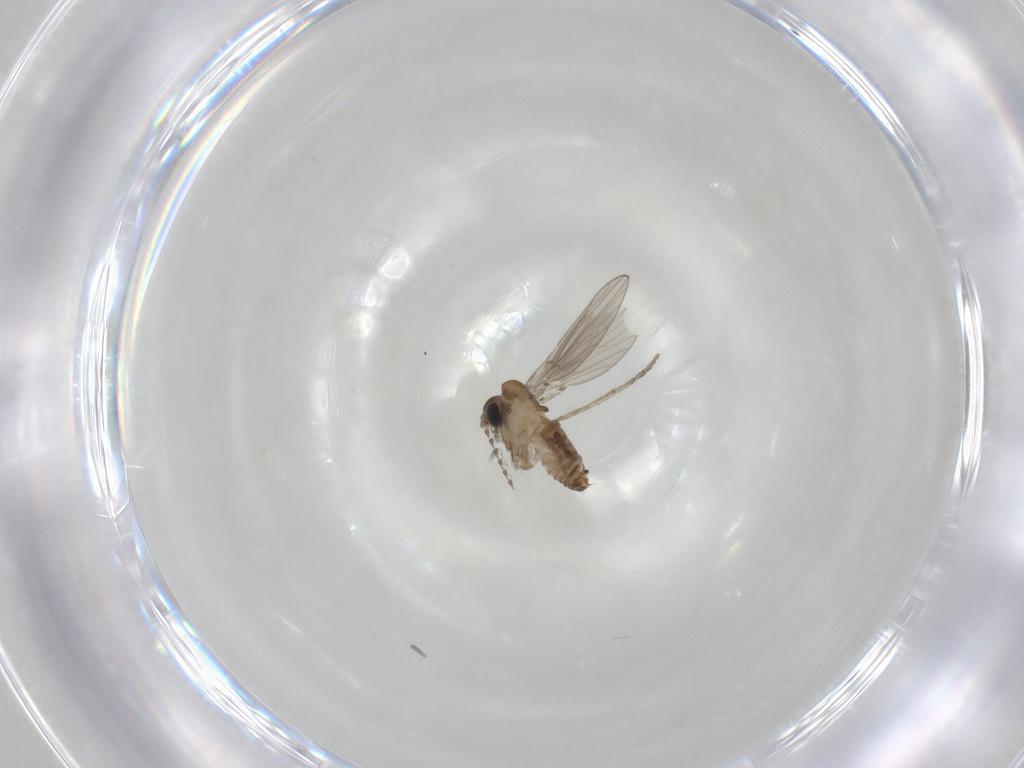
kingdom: Animalia
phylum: Arthropoda
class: Insecta
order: Diptera
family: Psychodidae
